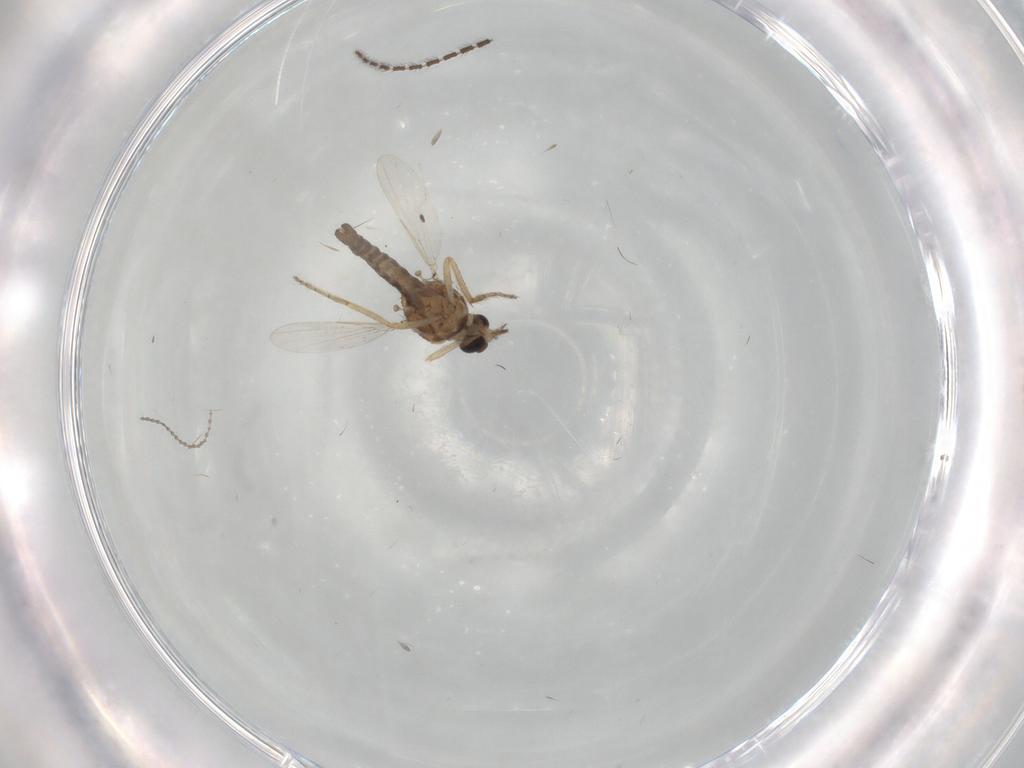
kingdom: Animalia
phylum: Arthropoda
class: Insecta
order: Diptera
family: Ceratopogonidae
